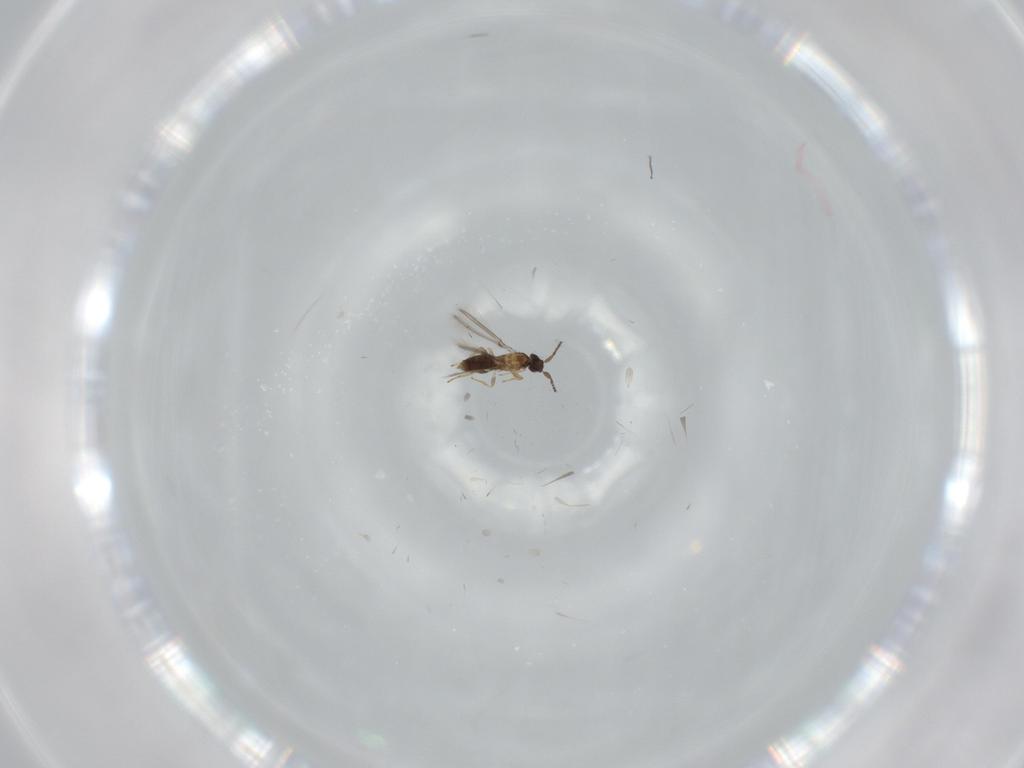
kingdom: Animalia
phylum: Arthropoda
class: Insecta
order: Hymenoptera
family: Mymaridae
